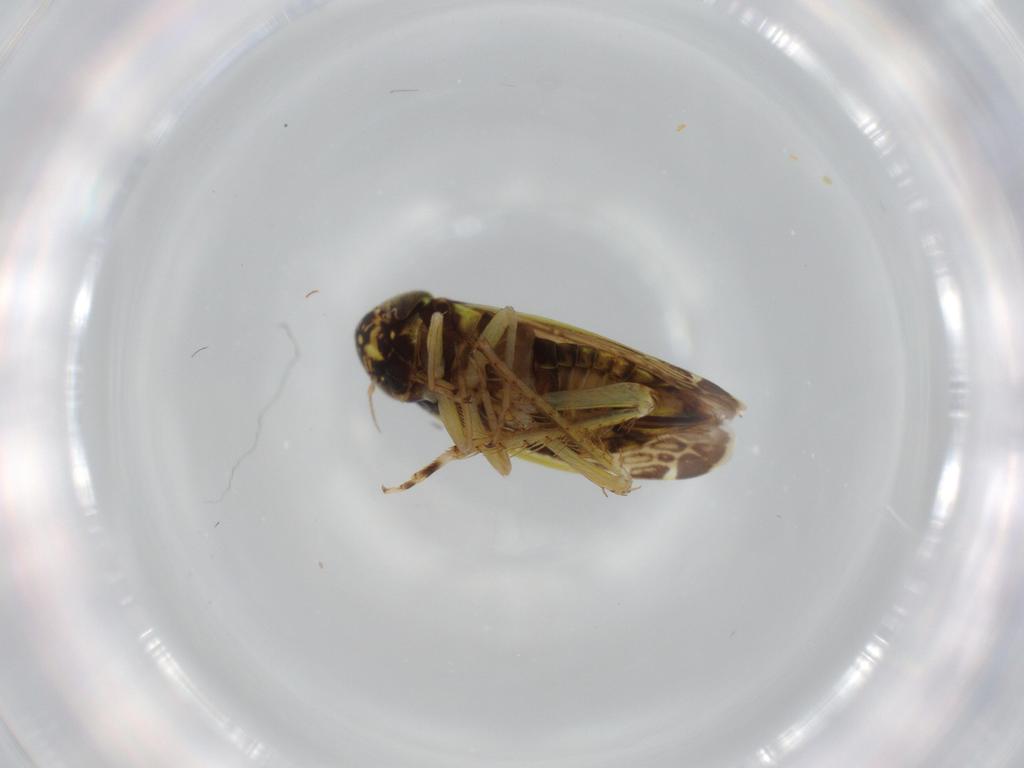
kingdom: Animalia
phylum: Arthropoda
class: Insecta
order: Hemiptera
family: Cicadellidae
